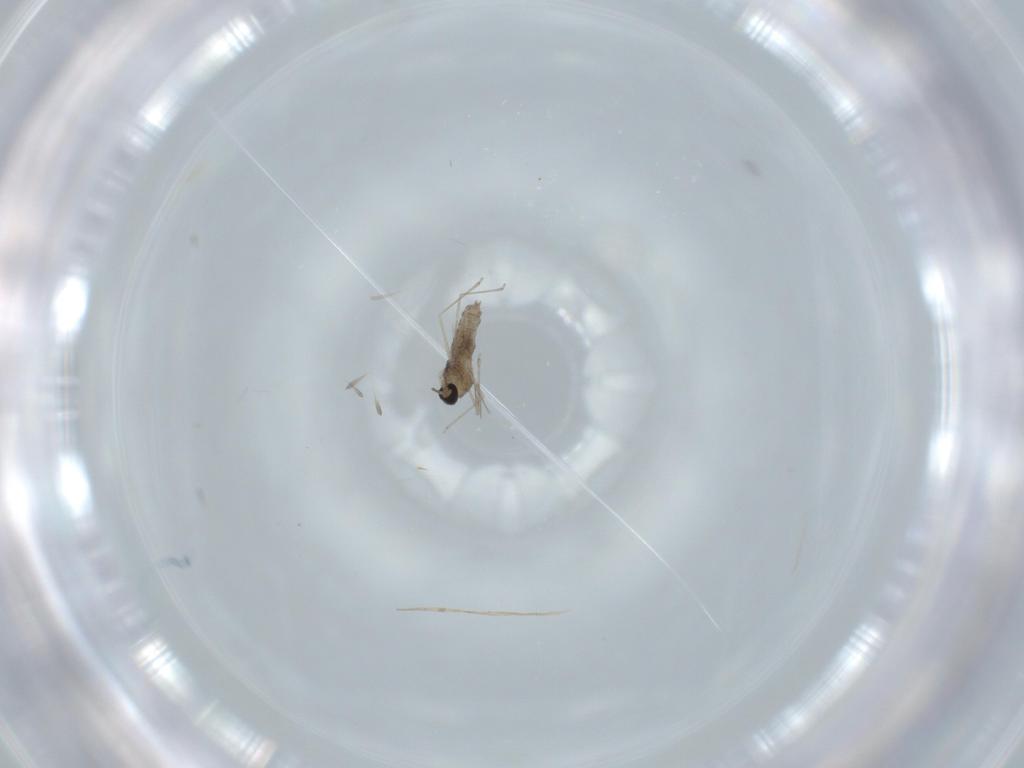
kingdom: Animalia
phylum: Arthropoda
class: Insecta
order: Diptera
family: Cecidomyiidae
